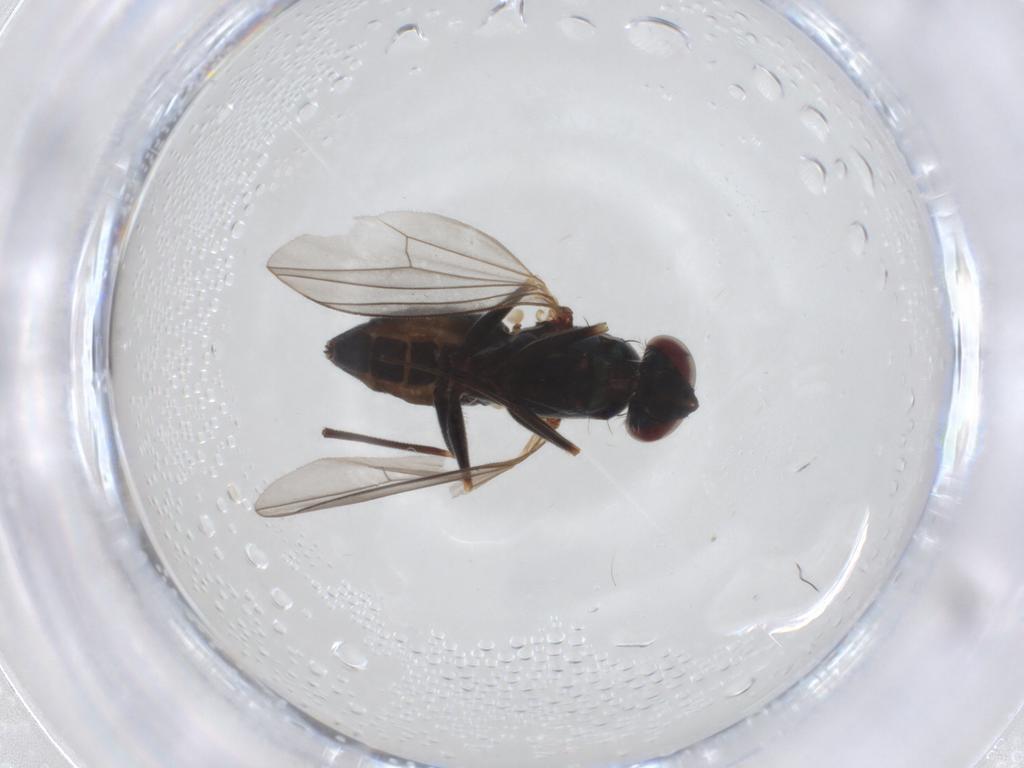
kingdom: Animalia
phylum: Arthropoda
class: Insecta
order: Diptera
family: Dolichopodidae
